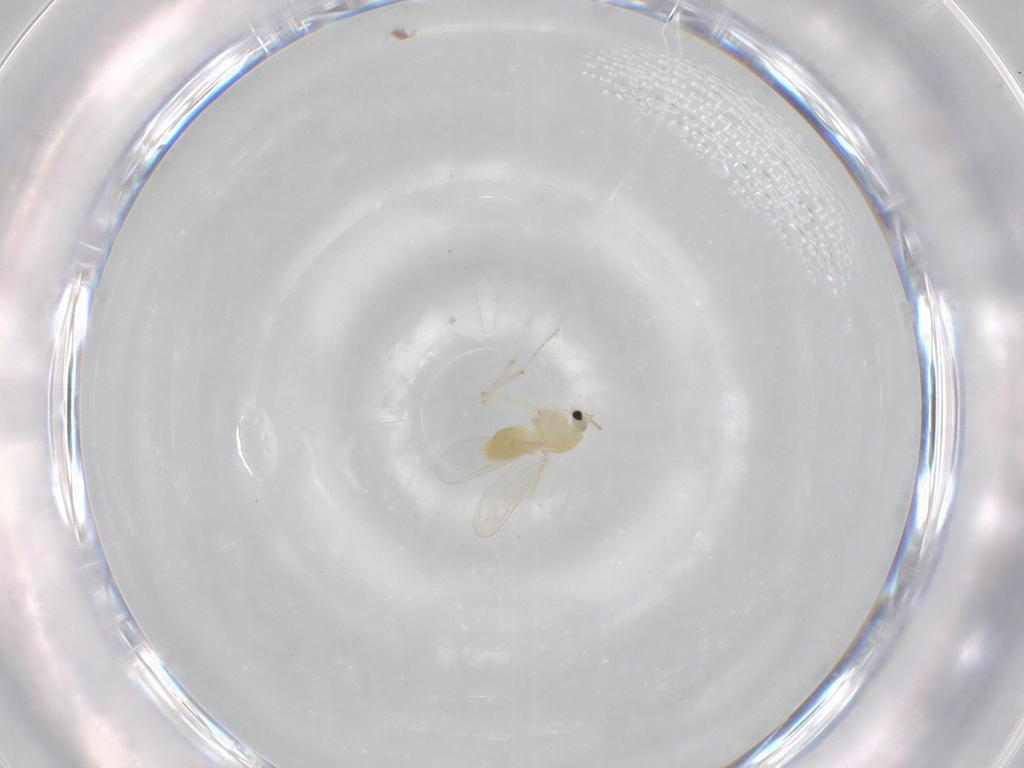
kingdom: Animalia
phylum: Arthropoda
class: Insecta
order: Diptera
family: Chironomidae
